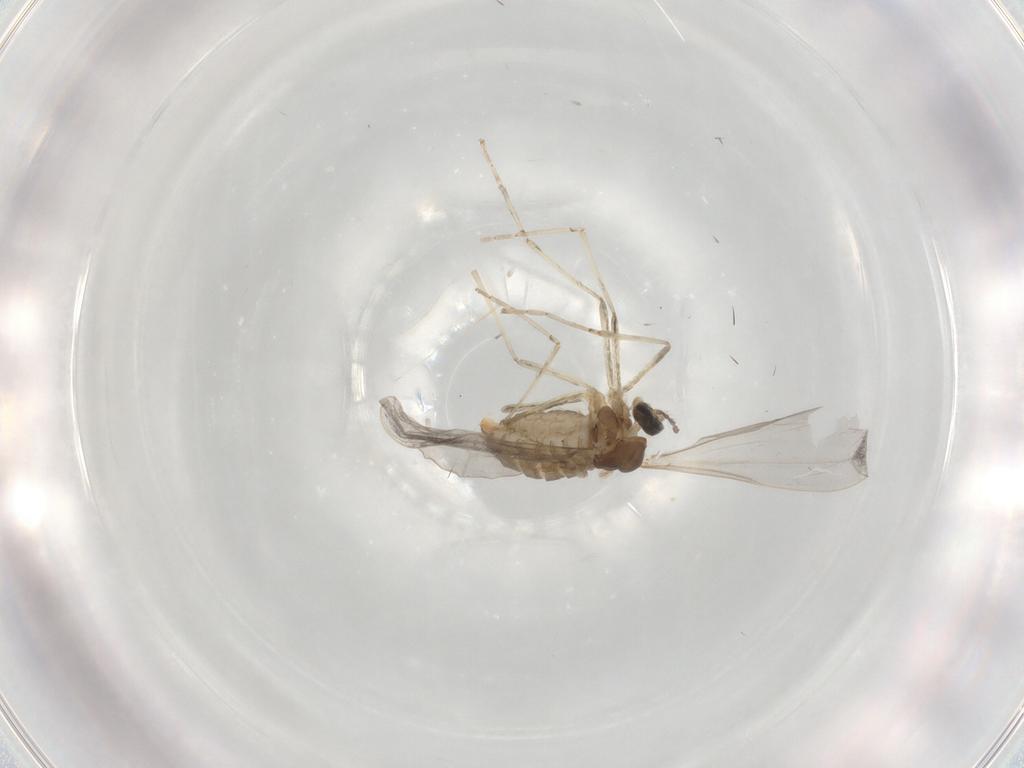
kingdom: Animalia
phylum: Arthropoda
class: Insecta
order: Diptera
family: Cecidomyiidae
